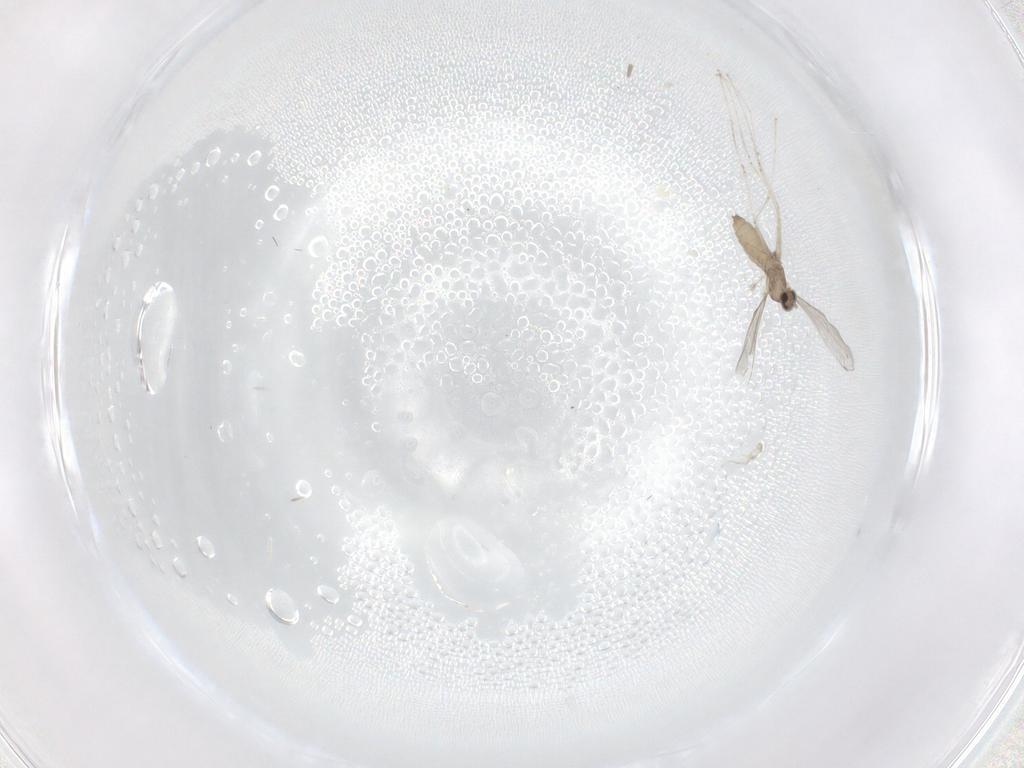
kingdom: Animalia
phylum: Arthropoda
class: Insecta
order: Diptera
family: Cecidomyiidae
